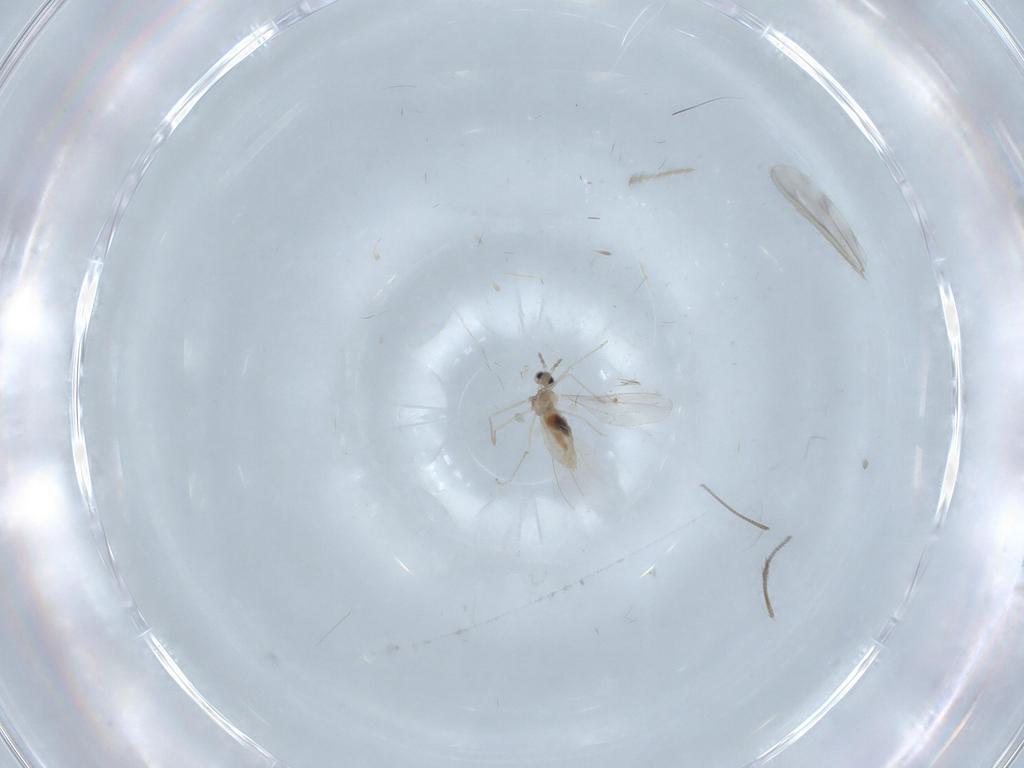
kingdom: Animalia
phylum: Arthropoda
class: Insecta
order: Diptera
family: Ceratopogonidae
